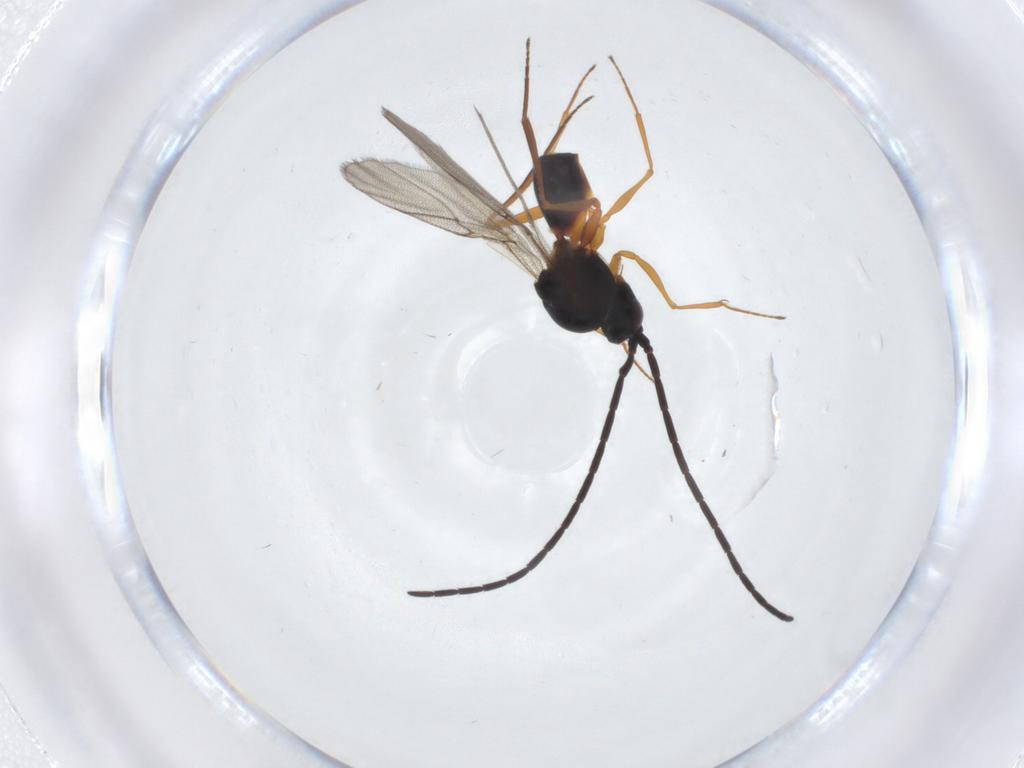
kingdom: Animalia
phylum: Arthropoda
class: Insecta
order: Hymenoptera
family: Figitidae
